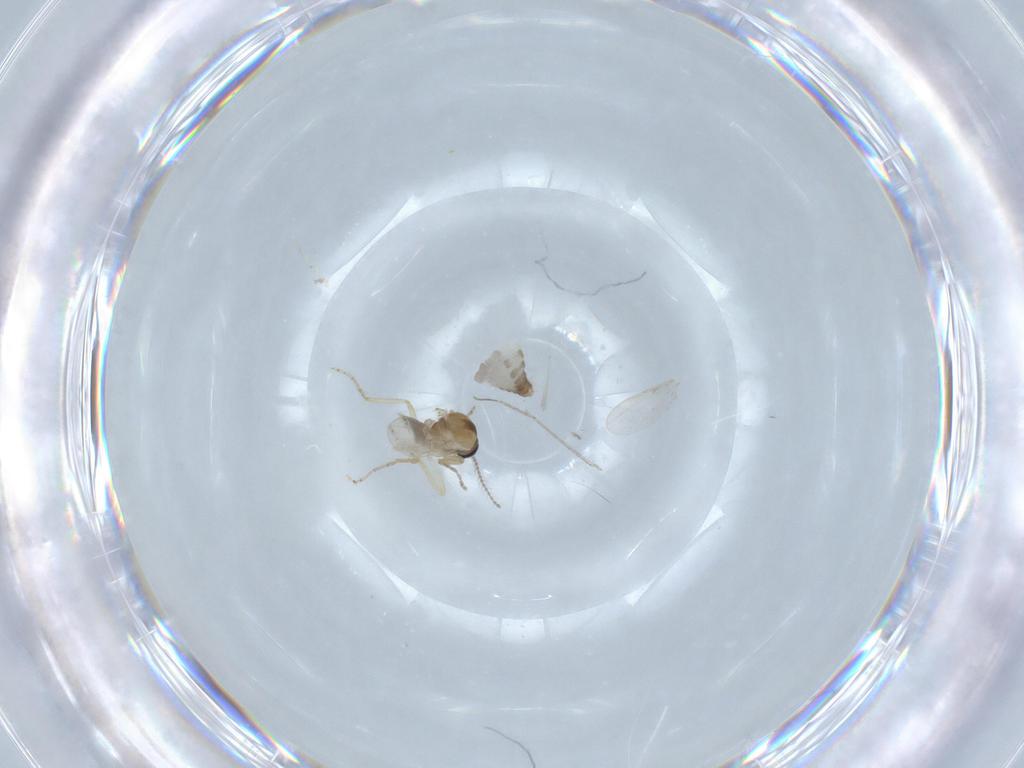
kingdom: Animalia
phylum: Arthropoda
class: Insecta
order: Diptera
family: Ceratopogonidae
